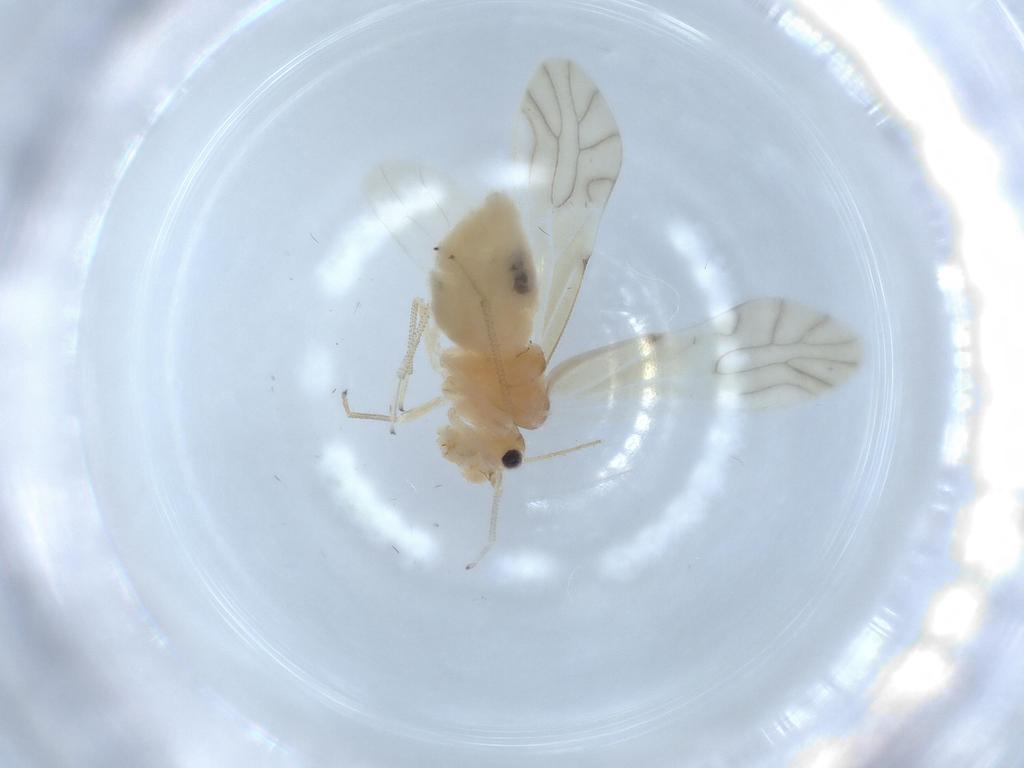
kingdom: Animalia
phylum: Arthropoda
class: Insecta
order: Psocodea
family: Caeciliusidae
